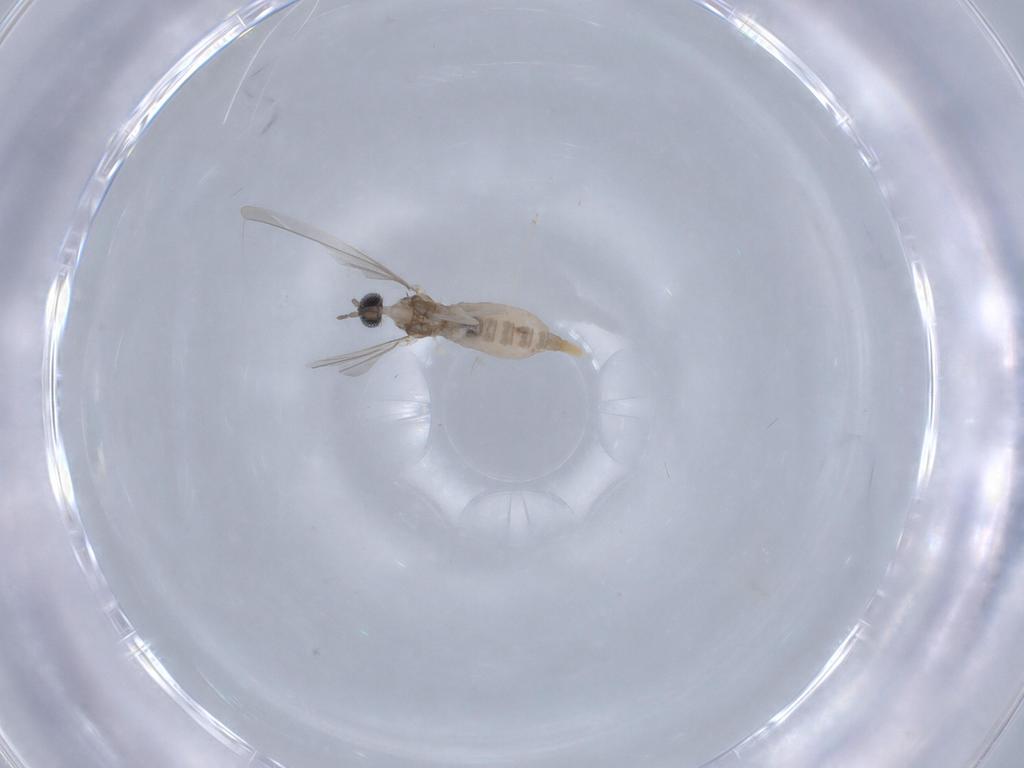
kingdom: Animalia
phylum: Arthropoda
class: Insecta
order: Diptera
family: Cecidomyiidae
